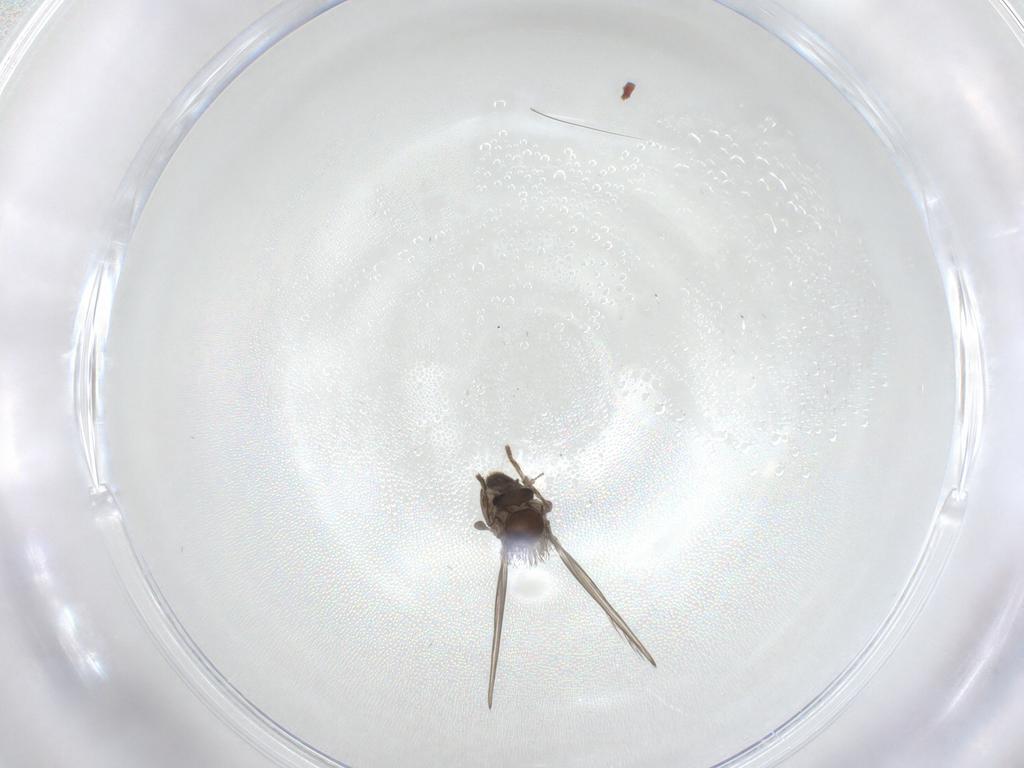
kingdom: Animalia
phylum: Arthropoda
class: Insecta
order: Diptera
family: Psychodidae
